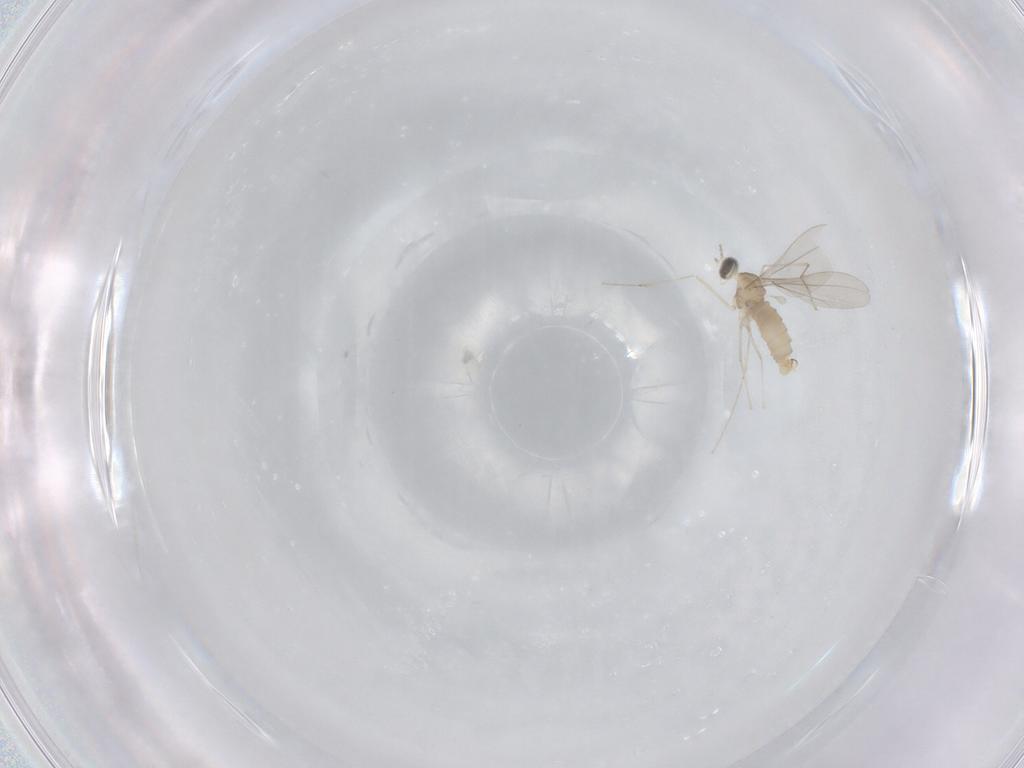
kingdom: Animalia
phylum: Arthropoda
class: Insecta
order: Diptera
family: Cecidomyiidae
